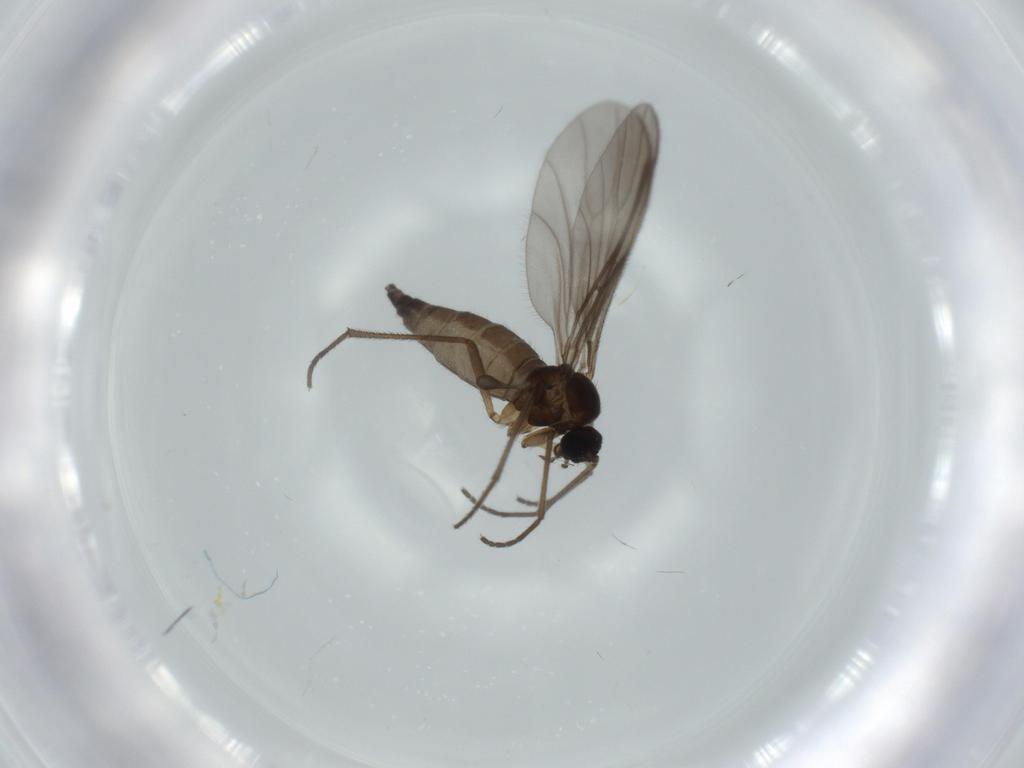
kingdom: Animalia
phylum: Arthropoda
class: Insecta
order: Diptera
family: Sciaridae
